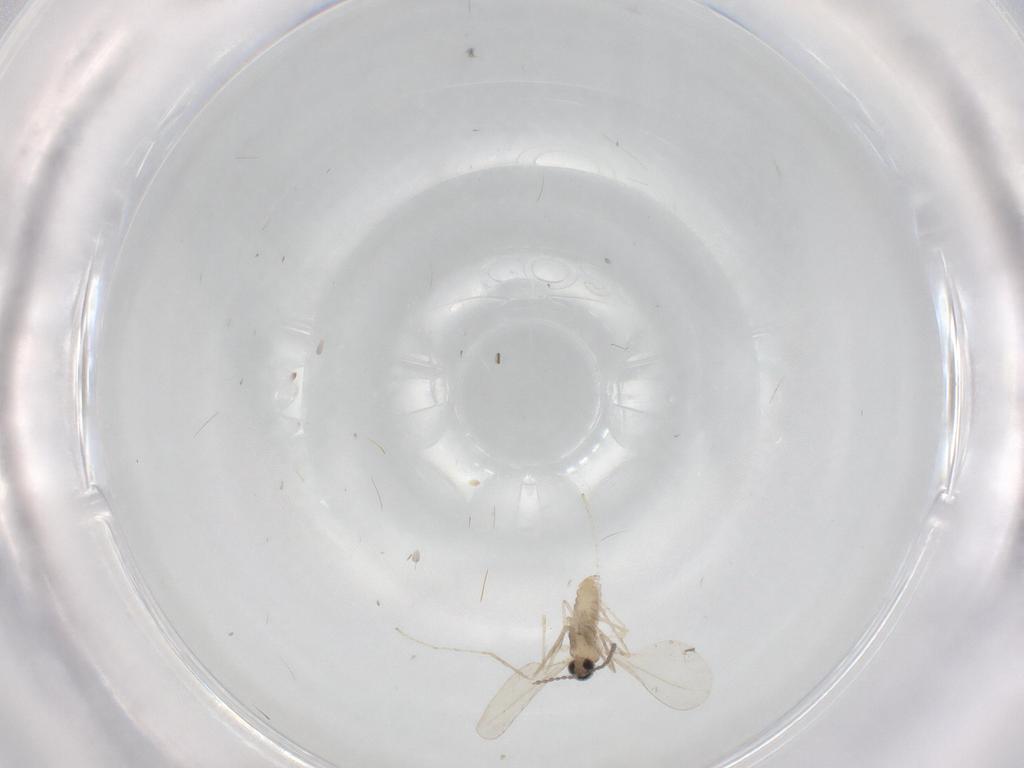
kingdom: Animalia
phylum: Arthropoda
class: Insecta
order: Diptera
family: Cecidomyiidae
